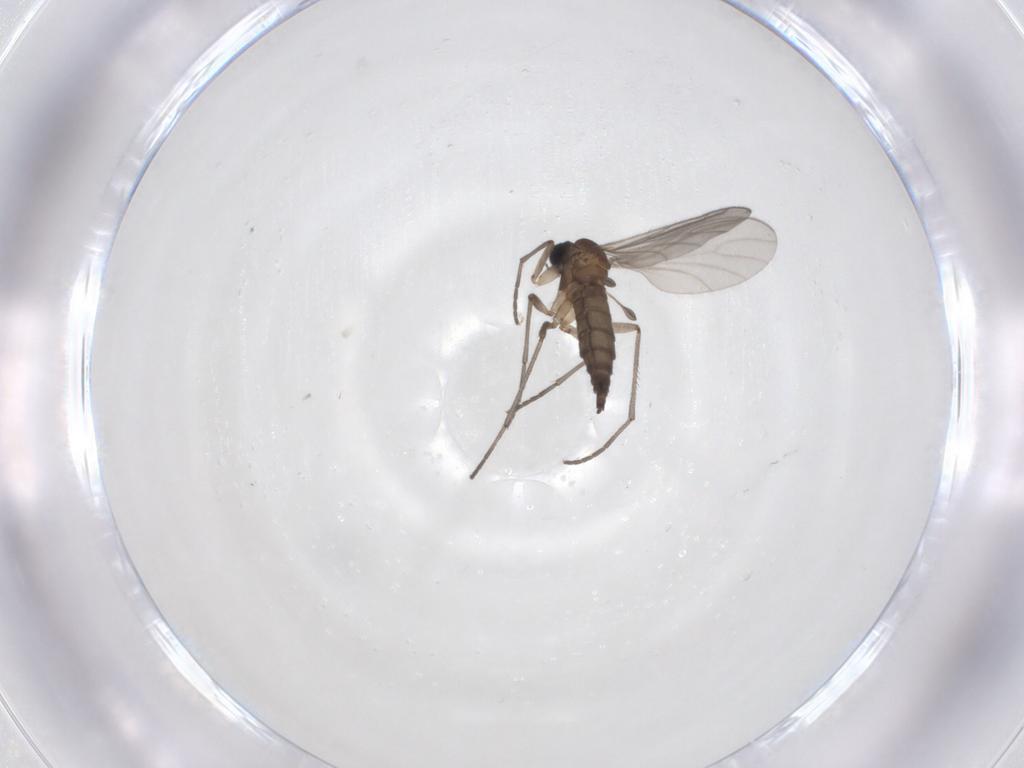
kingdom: Animalia
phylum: Arthropoda
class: Insecta
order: Diptera
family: Sciaridae
